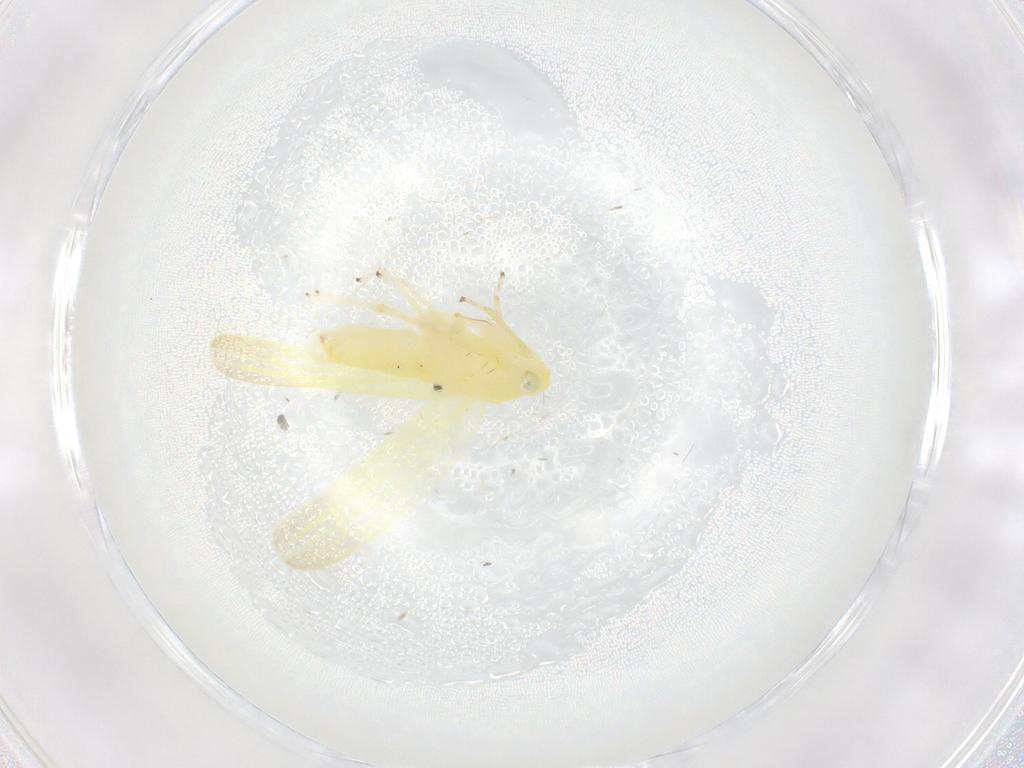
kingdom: Animalia
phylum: Arthropoda
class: Insecta
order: Hemiptera
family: Cicadellidae
